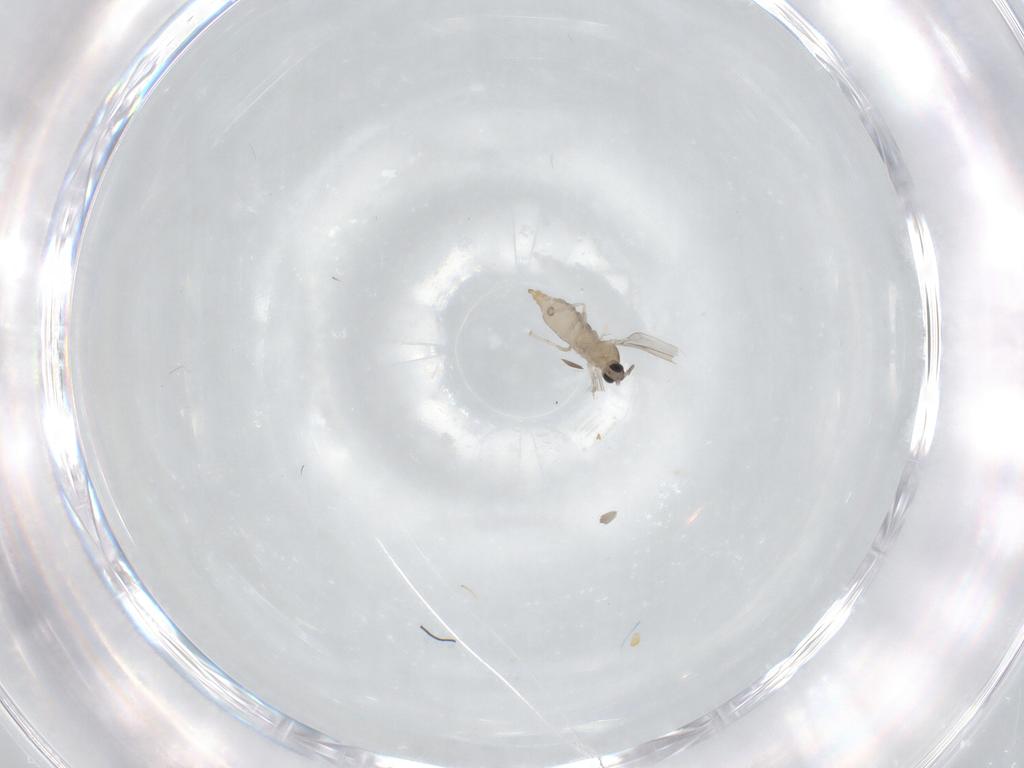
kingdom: Animalia
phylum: Arthropoda
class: Insecta
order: Diptera
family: Cecidomyiidae
